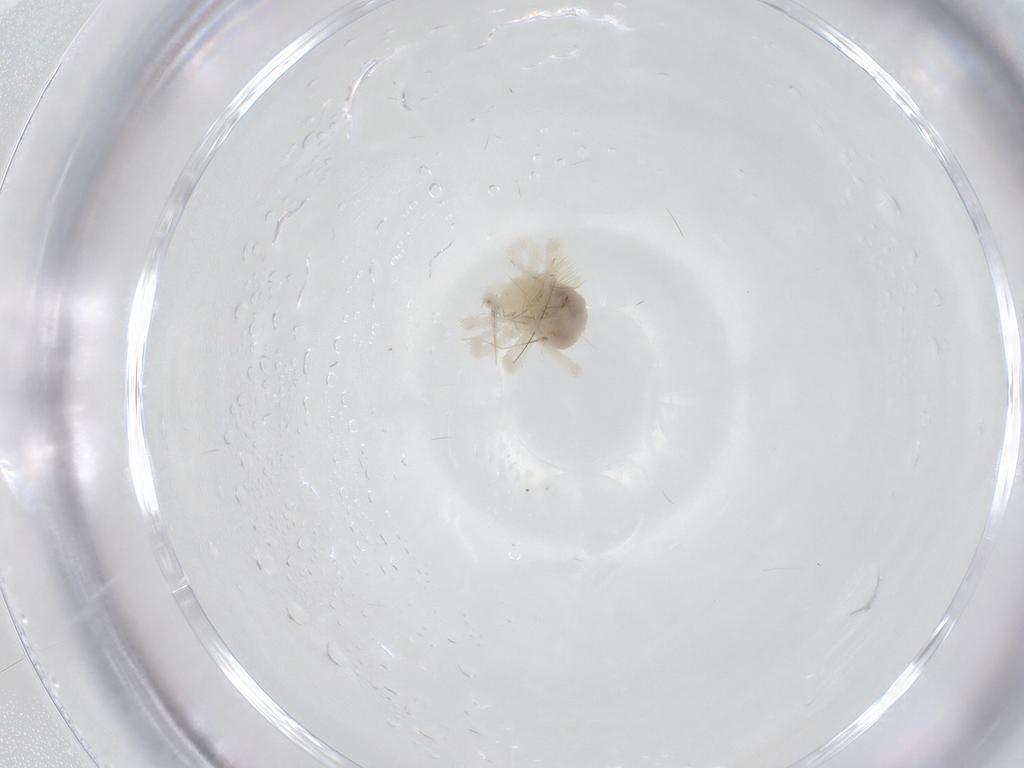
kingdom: Animalia
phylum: Arthropoda
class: Arachnida
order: Trombidiformes
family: Anystidae
